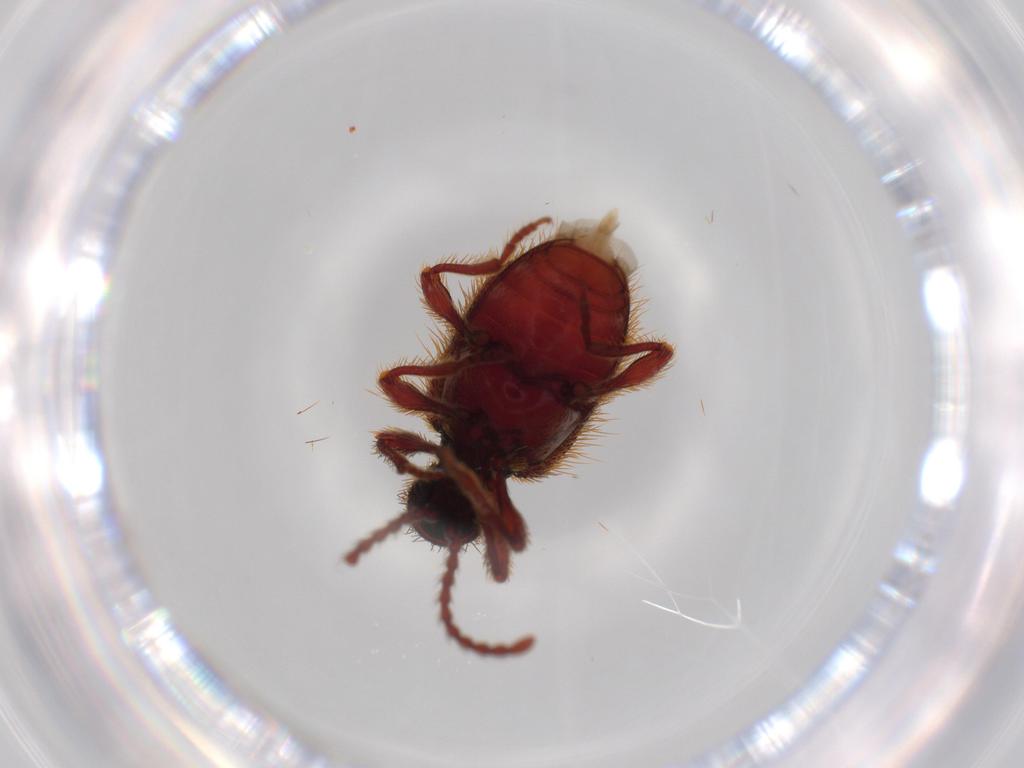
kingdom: Animalia
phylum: Arthropoda
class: Insecta
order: Coleoptera
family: Ptinidae
